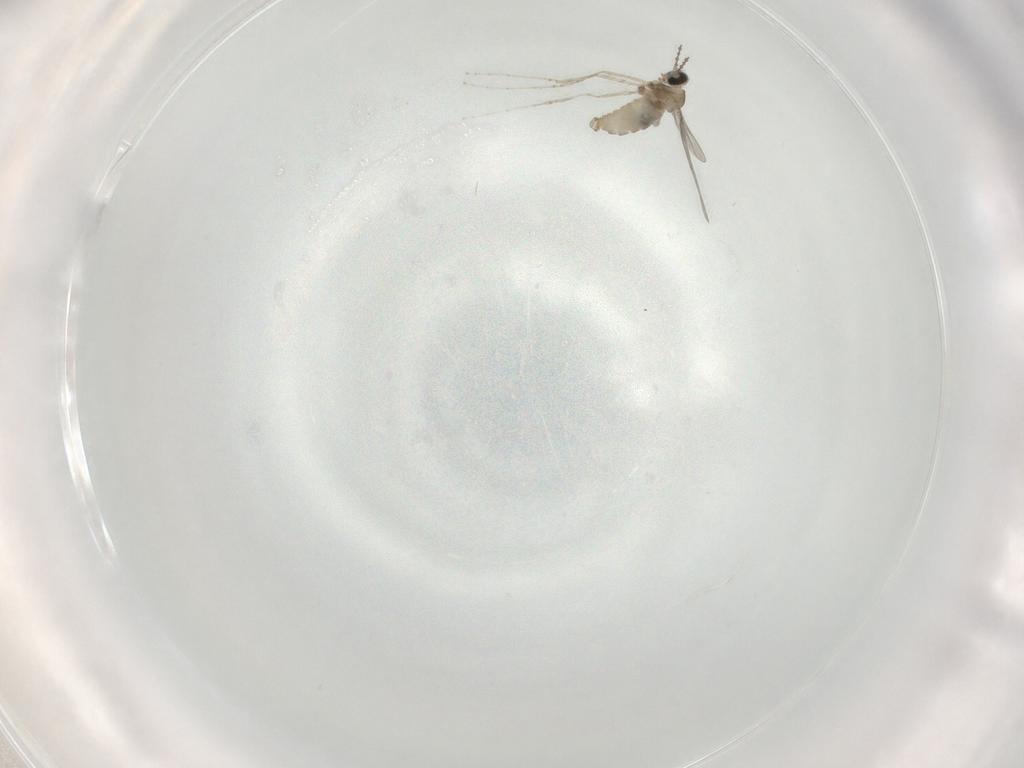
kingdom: Animalia
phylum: Arthropoda
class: Insecta
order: Diptera
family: Cecidomyiidae
